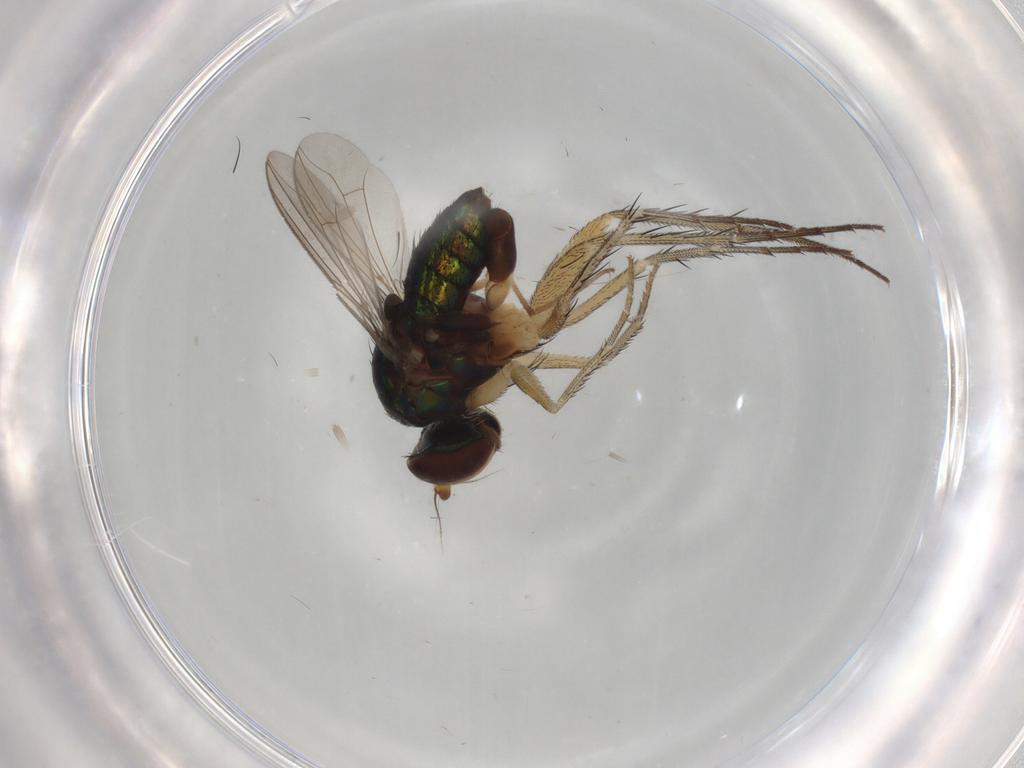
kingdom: Animalia
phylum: Arthropoda
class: Insecta
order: Diptera
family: Dolichopodidae
